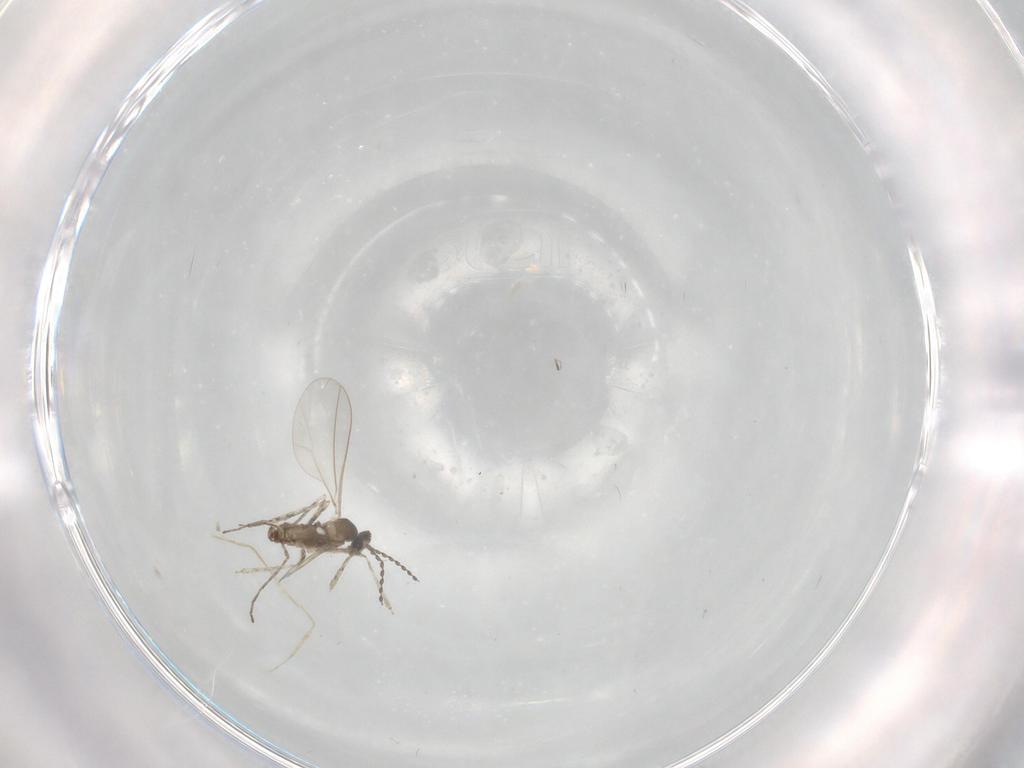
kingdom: Animalia
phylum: Arthropoda
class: Insecta
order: Diptera
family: Cecidomyiidae
